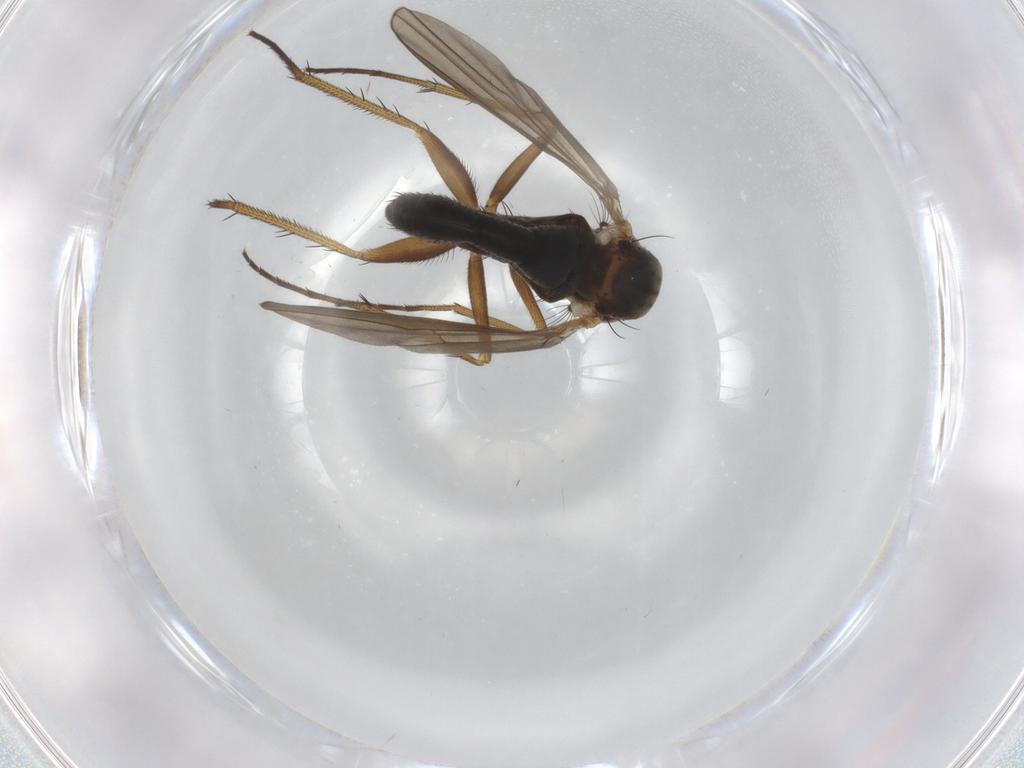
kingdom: Animalia
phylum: Arthropoda
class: Insecta
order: Diptera
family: Dolichopodidae
